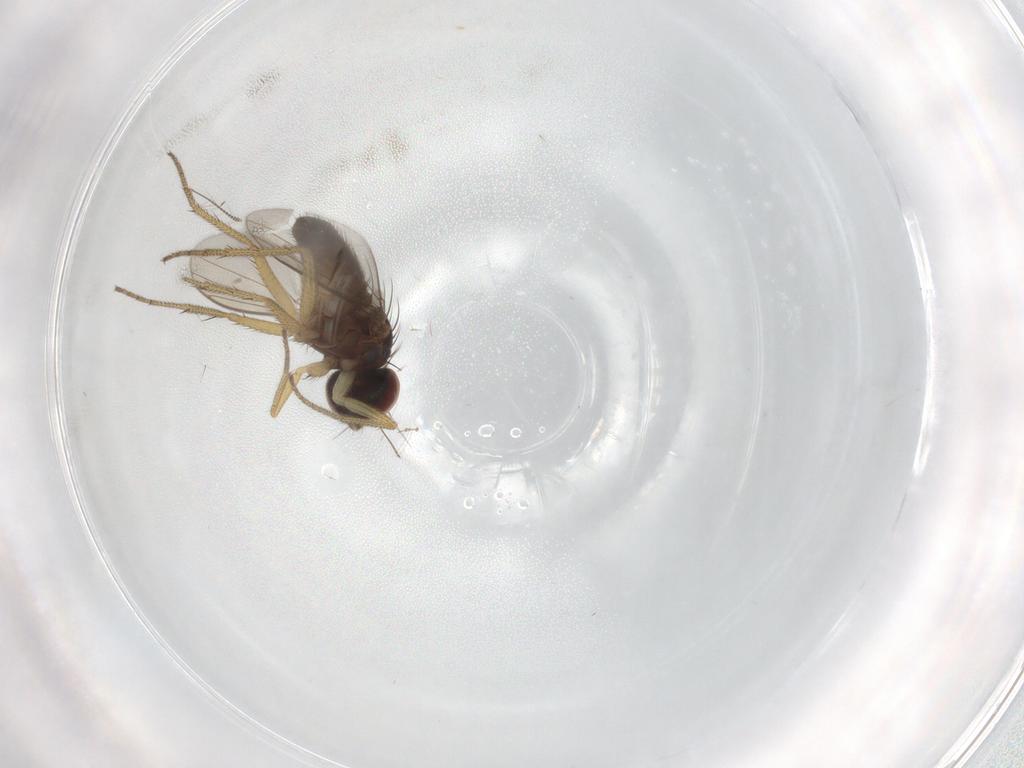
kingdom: Animalia
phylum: Arthropoda
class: Insecta
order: Diptera
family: Dolichopodidae
